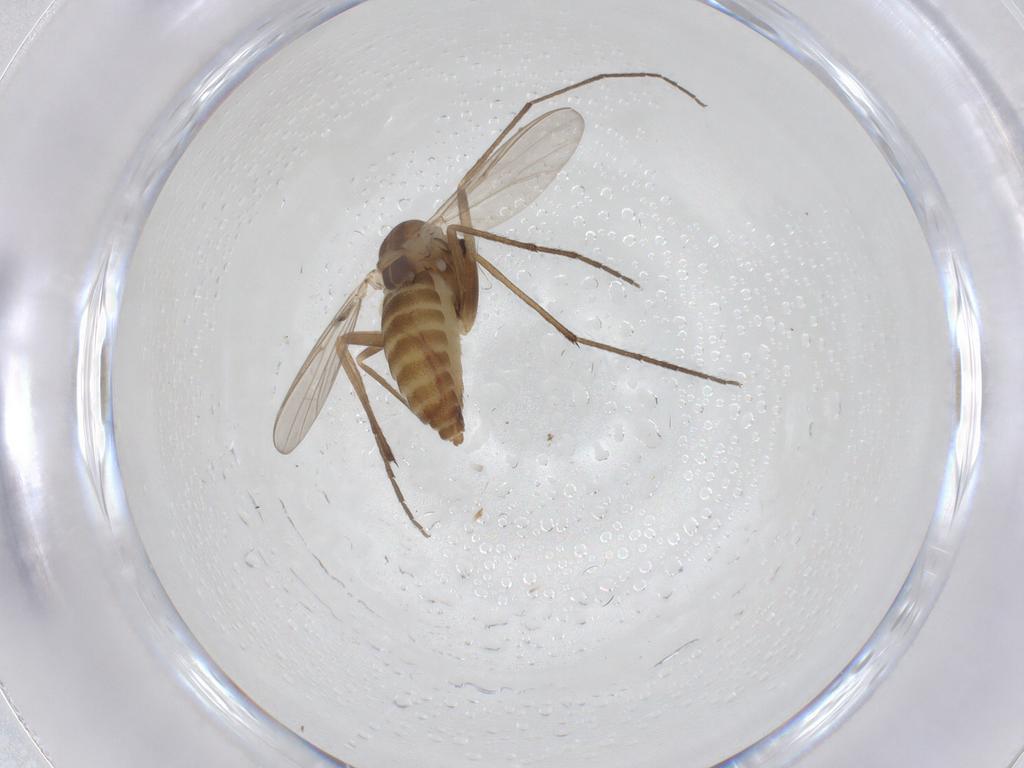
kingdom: Animalia
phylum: Arthropoda
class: Insecta
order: Diptera
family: Chironomidae
